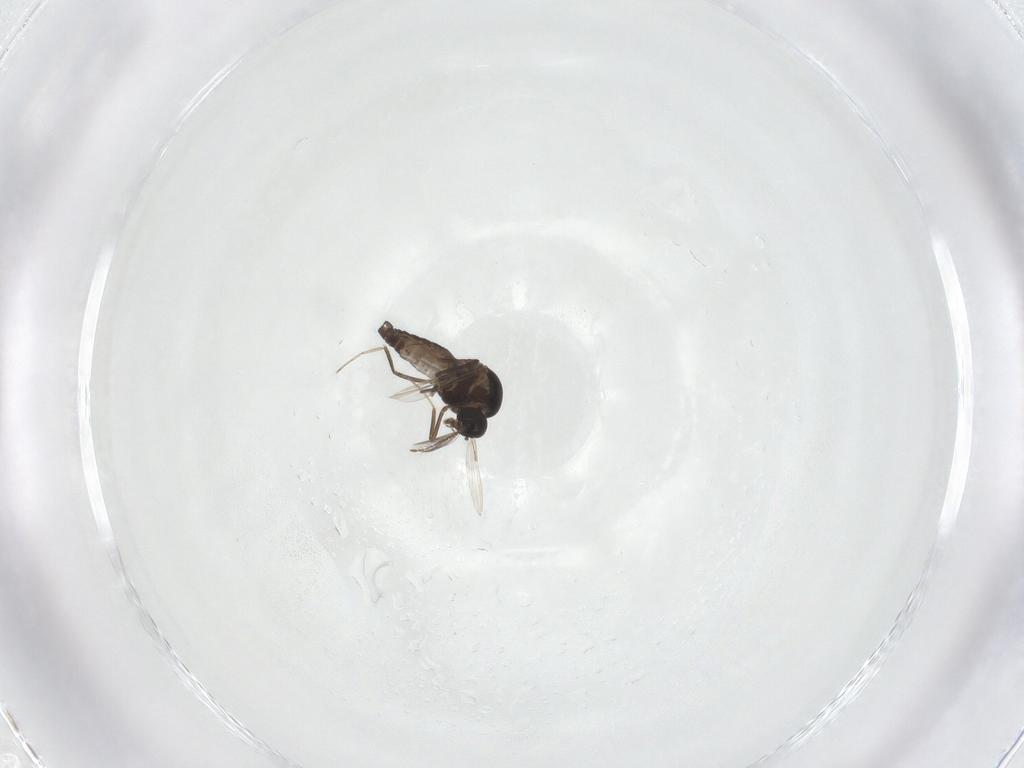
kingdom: Animalia
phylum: Arthropoda
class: Insecta
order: Diptera
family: Ceratopogonidae
